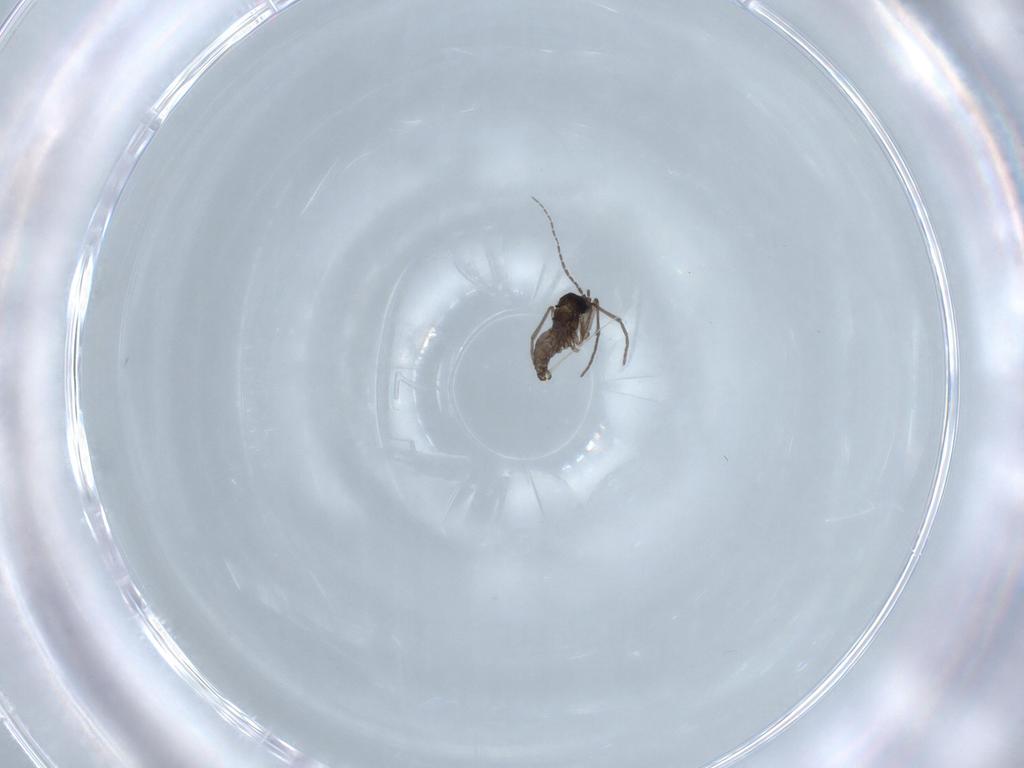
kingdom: Animalia
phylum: Arthropoda
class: Insecta
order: Diptera
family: Sciaridae
